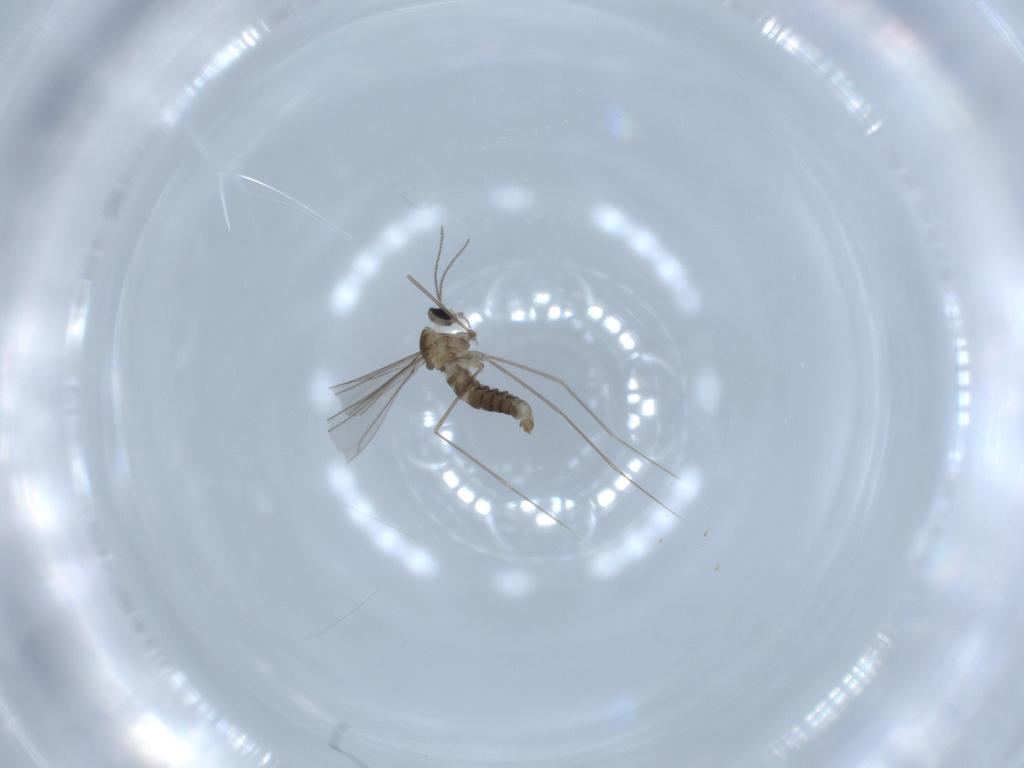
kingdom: Animalia
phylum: Arthropoda
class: Insecta
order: Diptera
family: Cecidomyiidae
